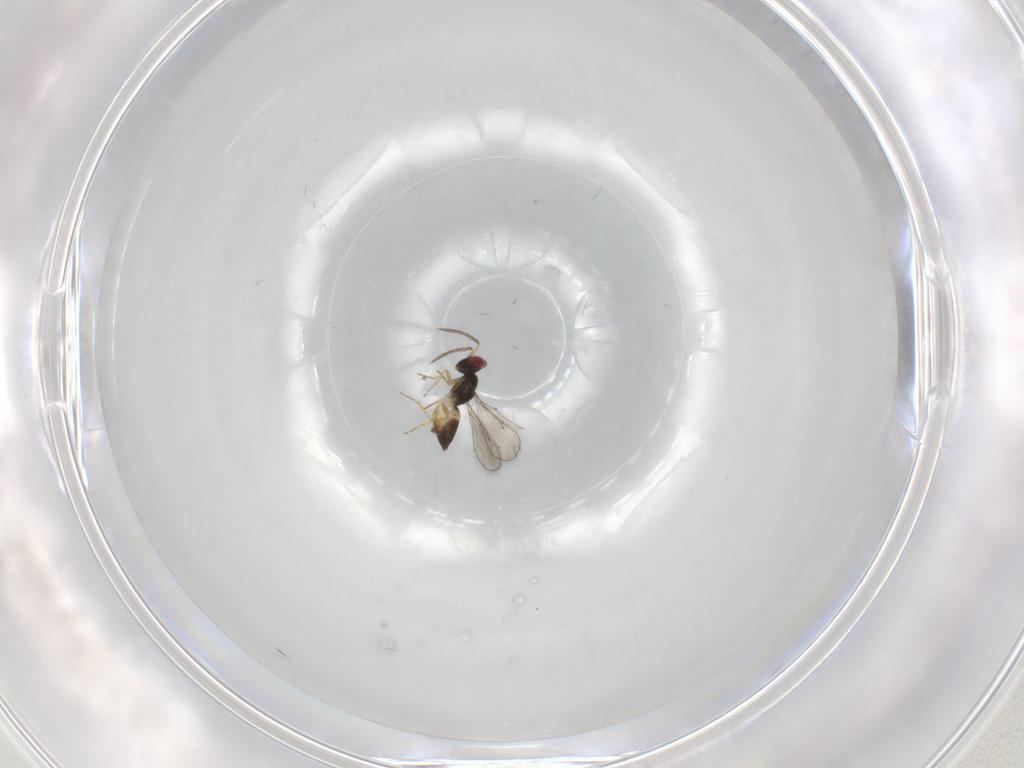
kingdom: Animalia
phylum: Arthropoda
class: Insecta
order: Hymenoptera
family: Eulophidae
